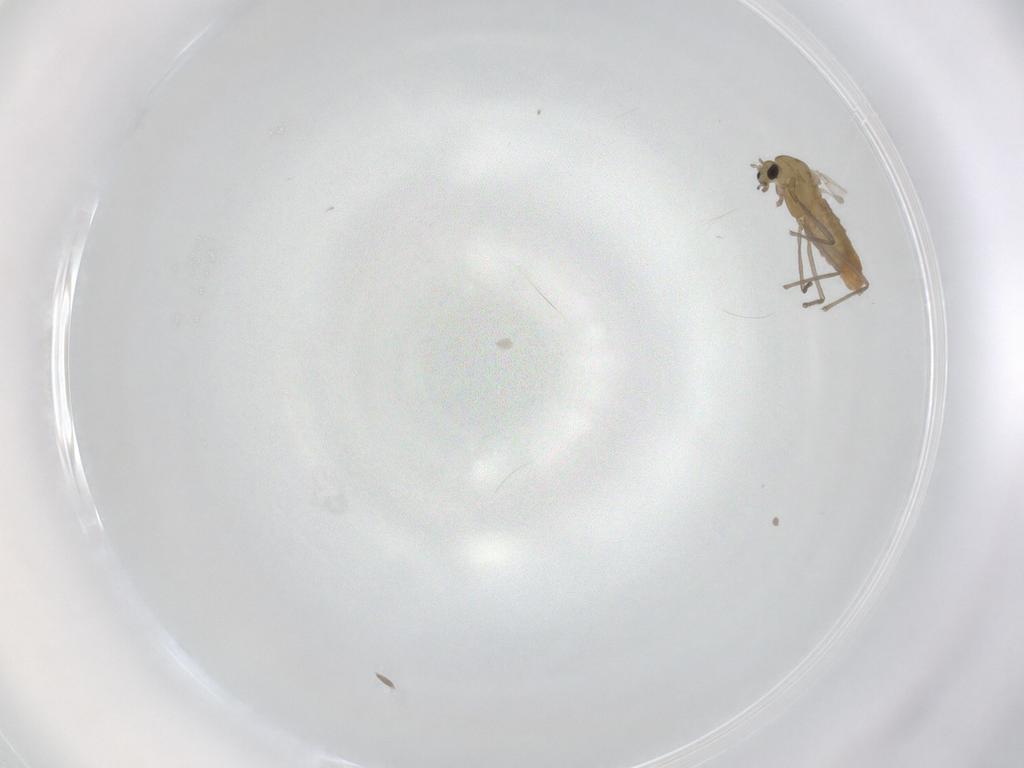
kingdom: Animalia
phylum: Arthropoda
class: Insecta
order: Diptera
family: Chironomidae
